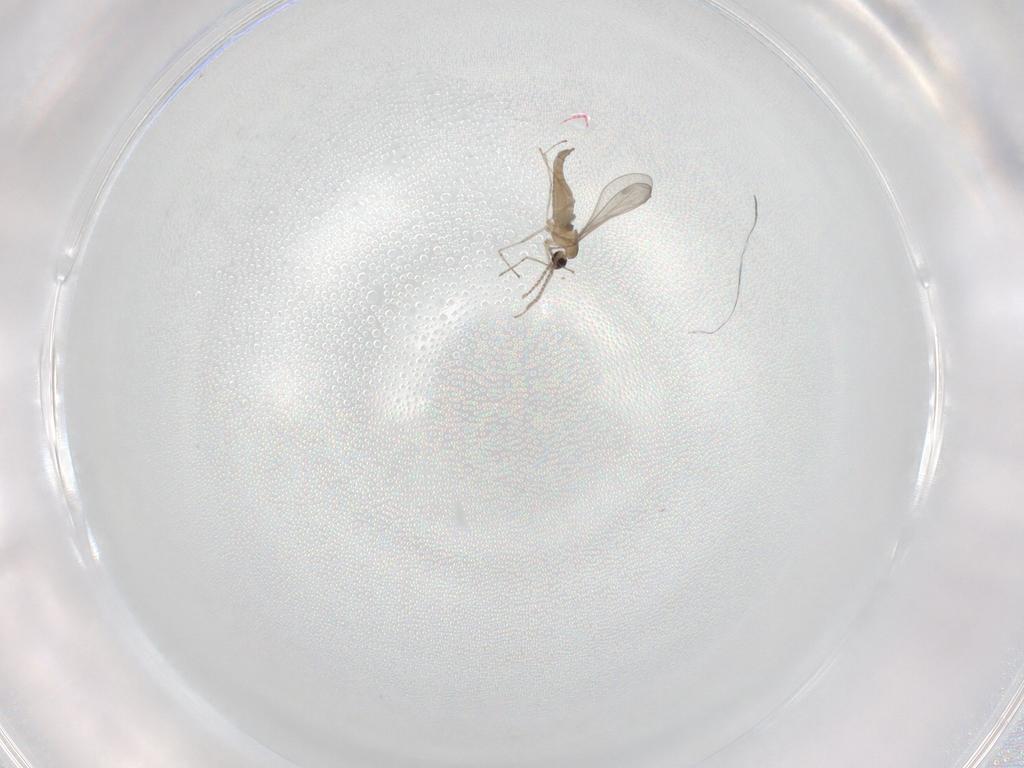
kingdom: Animalia
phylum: Arthropoda
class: Insecta
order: Diptera
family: Cecidomyiidae
